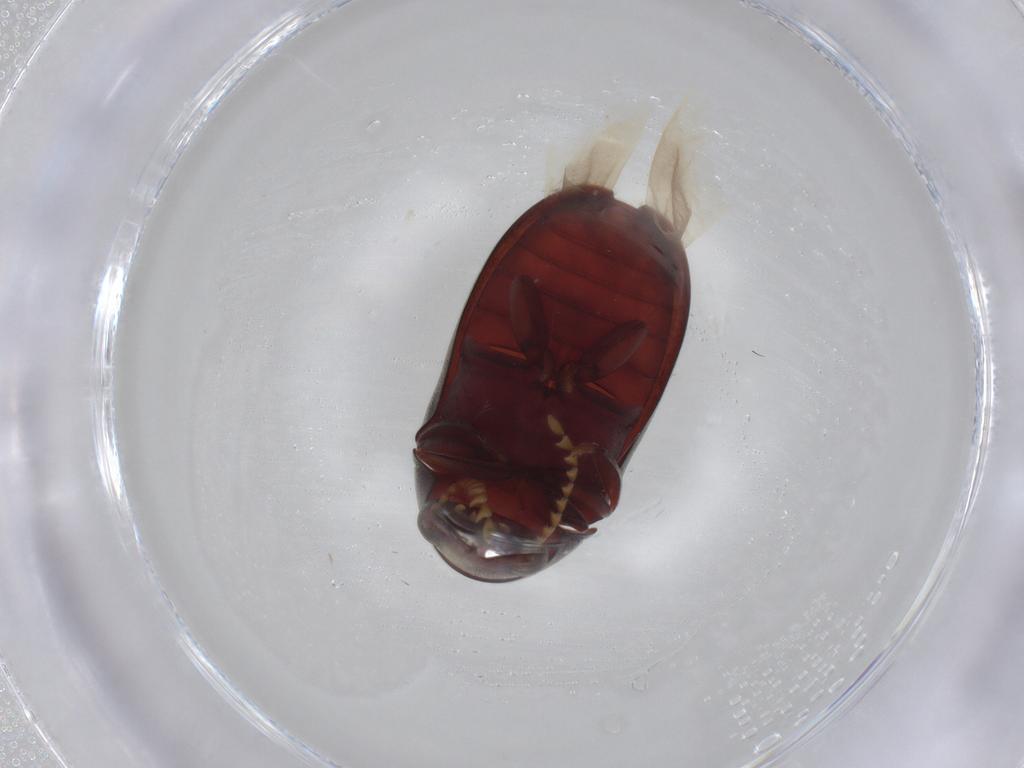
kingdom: Animalia
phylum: Arthropoda
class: Insecta
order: Coleoptera
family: Ptinidae
